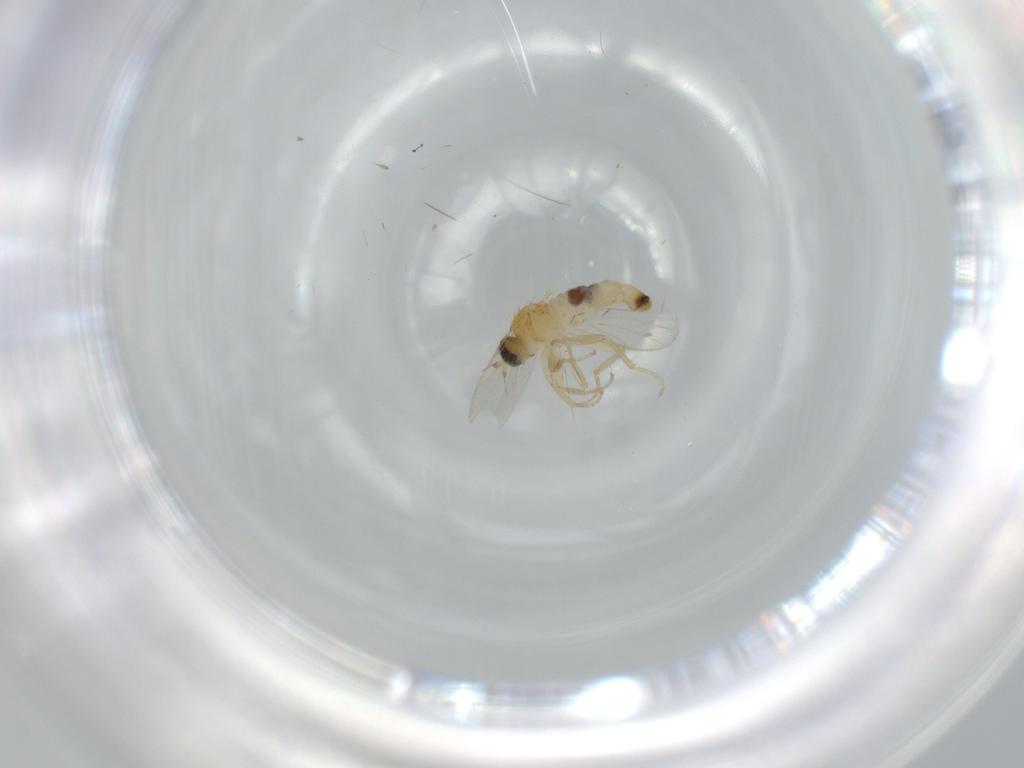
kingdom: Animalia
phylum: Arthropoda
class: Insecta
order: Diptera
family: Hybotidae
